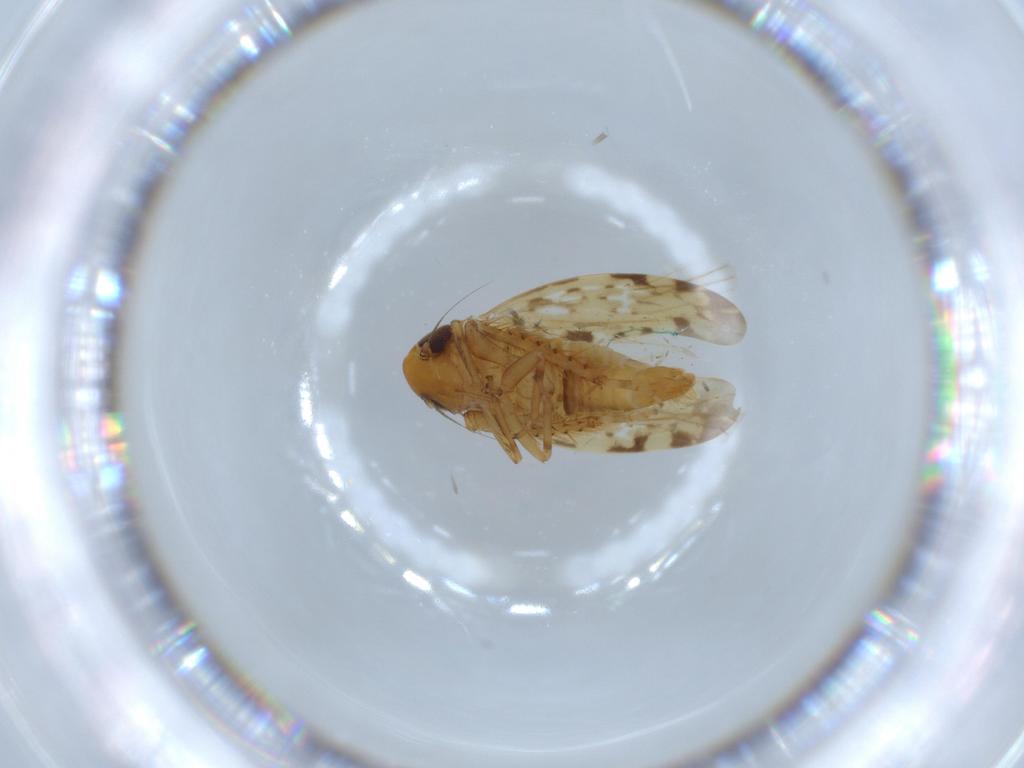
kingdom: Animalia
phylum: Arthropoda
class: Insecta
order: Hemiptera
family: Cicadellidae
